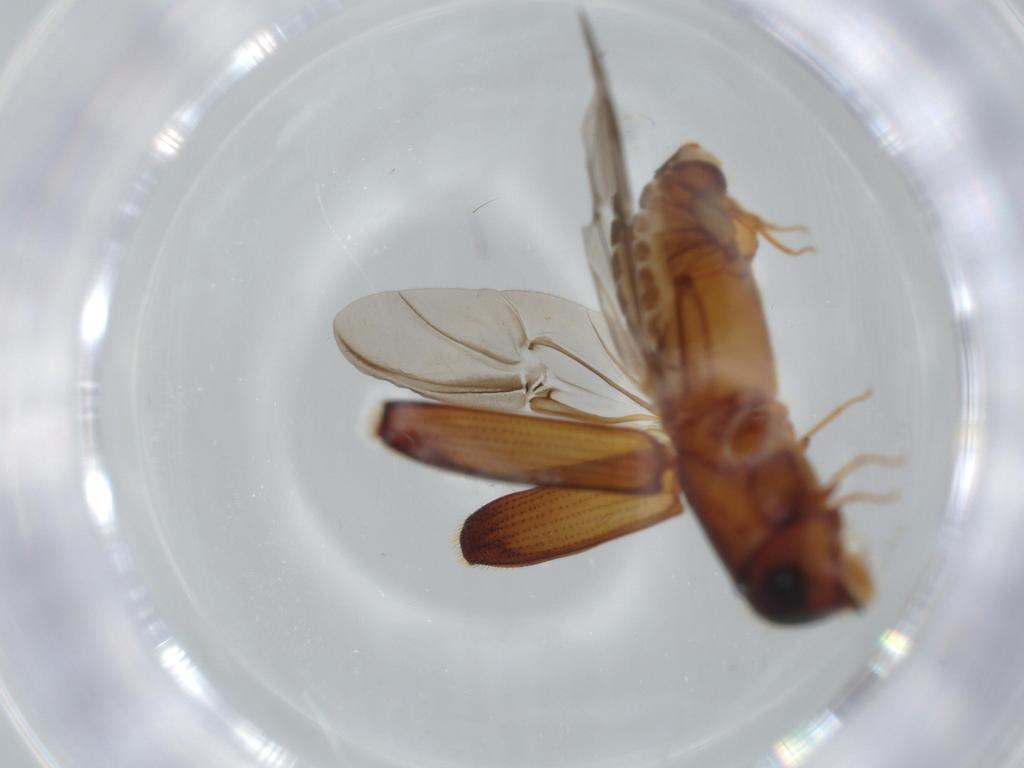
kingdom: Animalia
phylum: Arthropoda
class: Insecta
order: Coleoptera
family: Curculionidae
